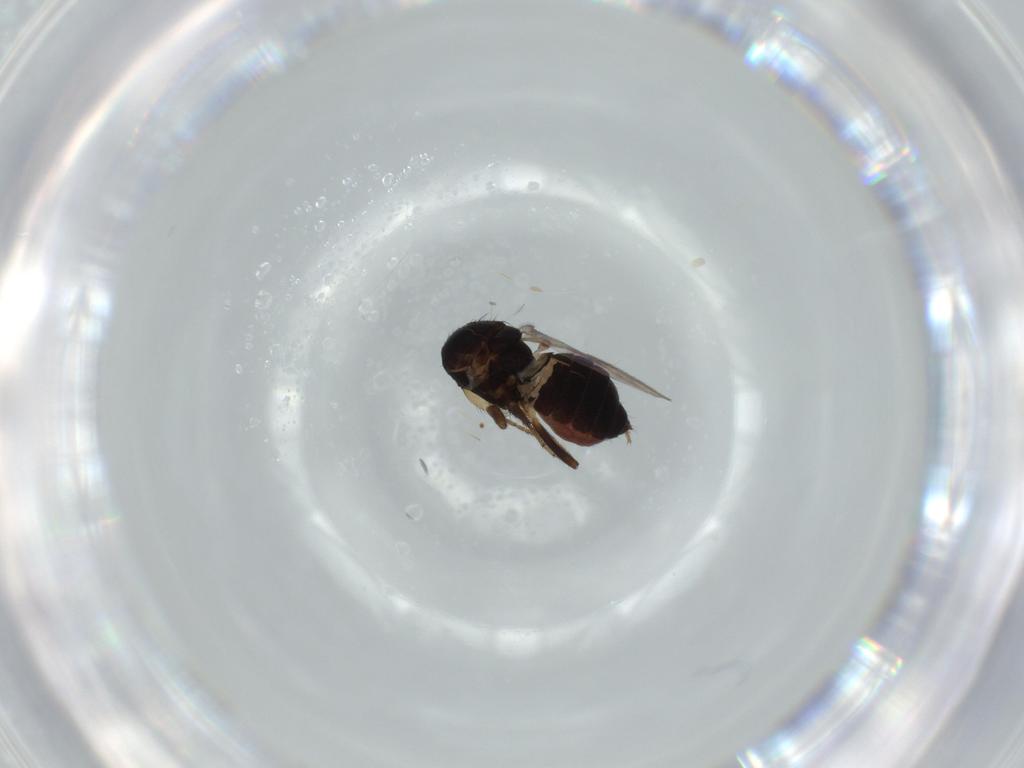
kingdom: Animalia
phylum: Arthropoda
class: Insecta
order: Diptera
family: Sphaeroceridae
